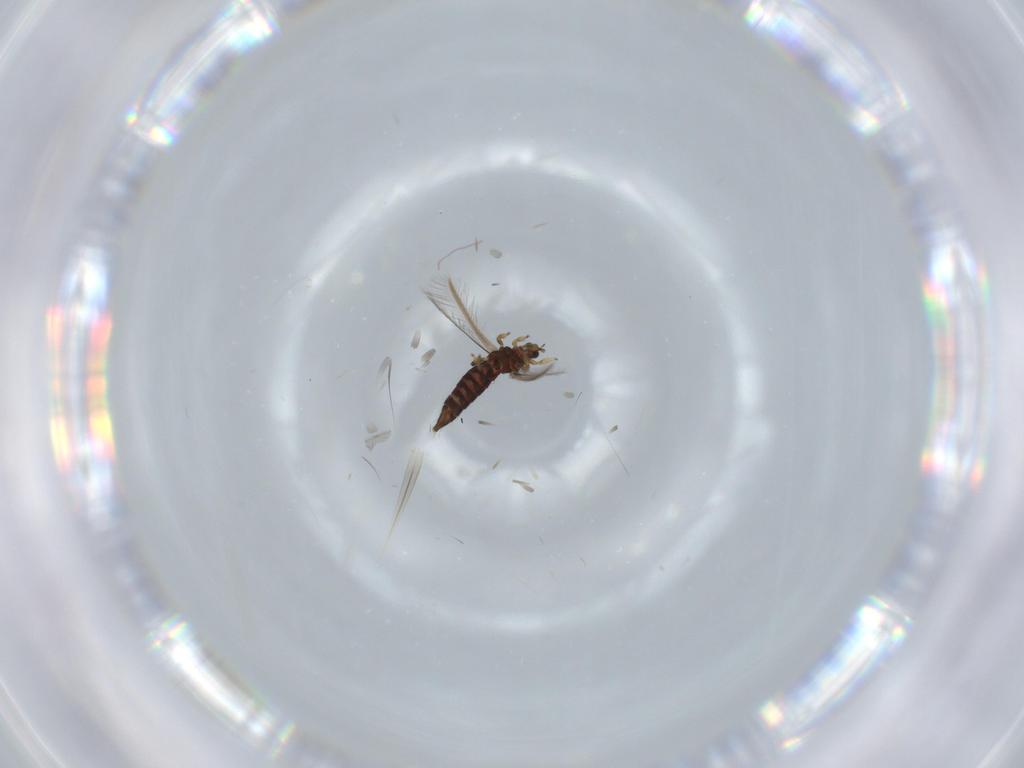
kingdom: Animalia
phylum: Arthropoda
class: Insecta
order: Thysanoptera
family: Thripidae
